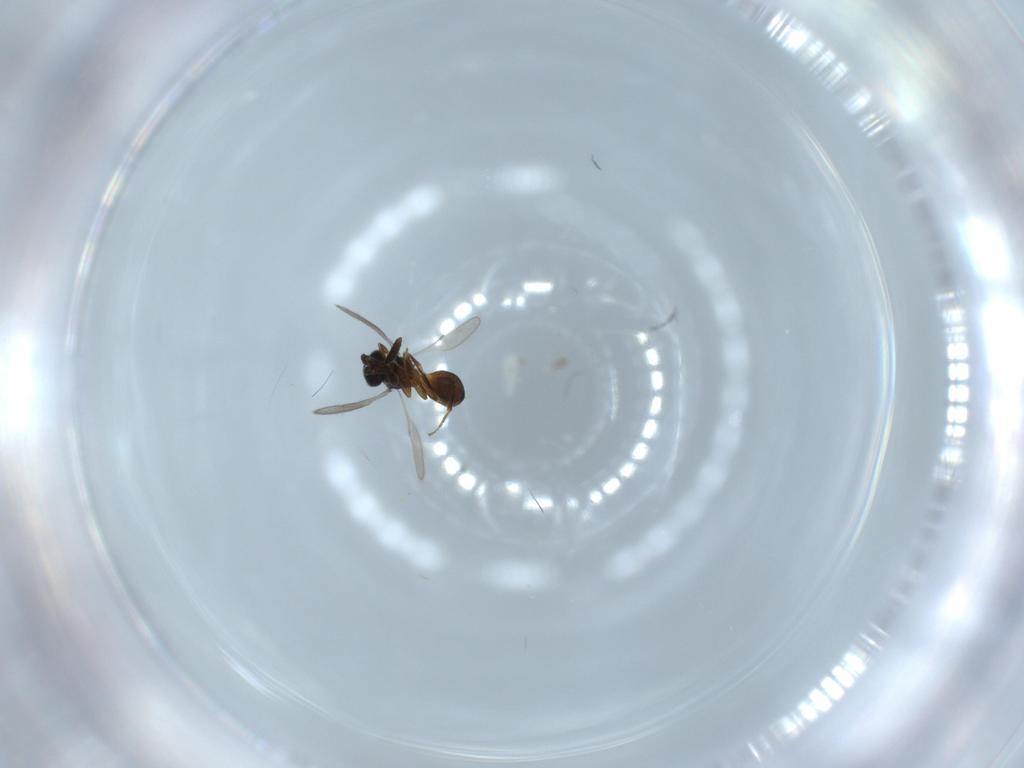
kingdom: Animalia
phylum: Arthropoda
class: Insecta
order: Hymenoptera
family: Scelionidae
